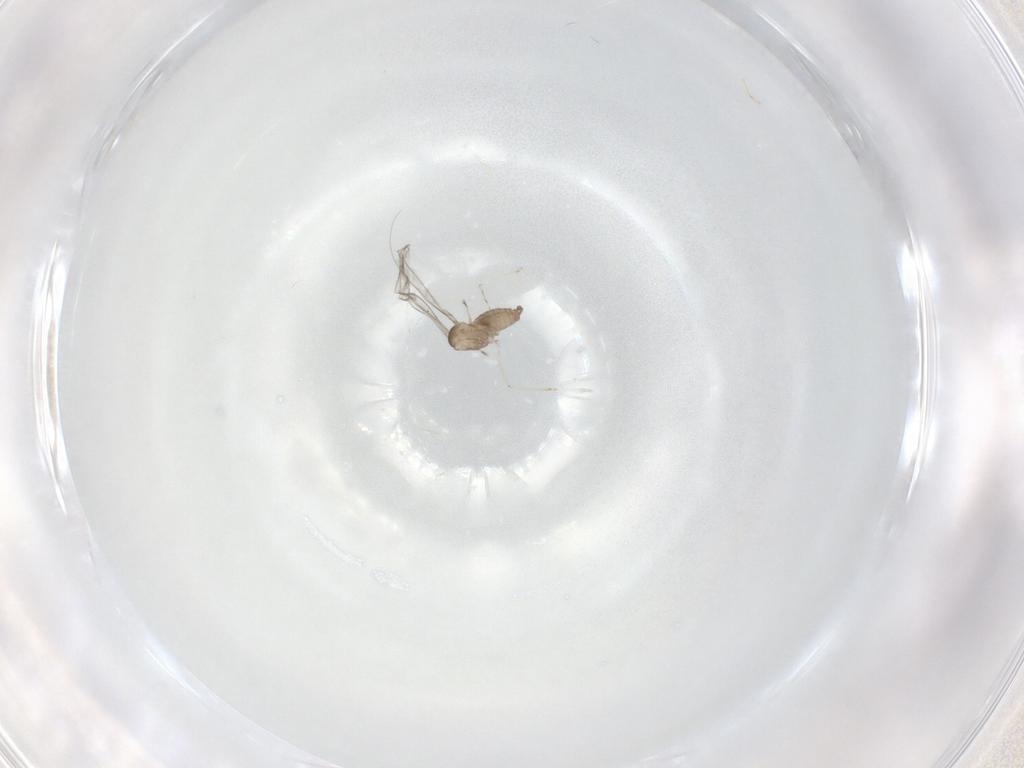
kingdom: Animalia
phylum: Arthropoda
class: Insecta
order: Diptera
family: Cecidomyiidae
